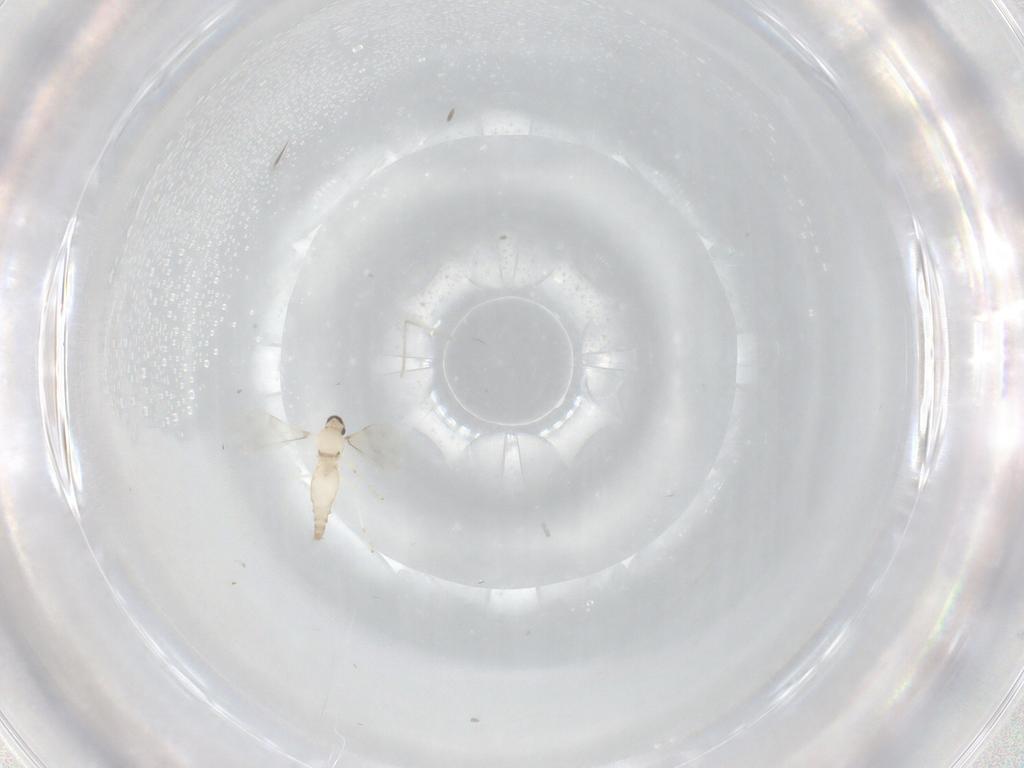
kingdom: Animalia
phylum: Arthropoda
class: Insecta
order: Diptera
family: Cecidomyiidae
